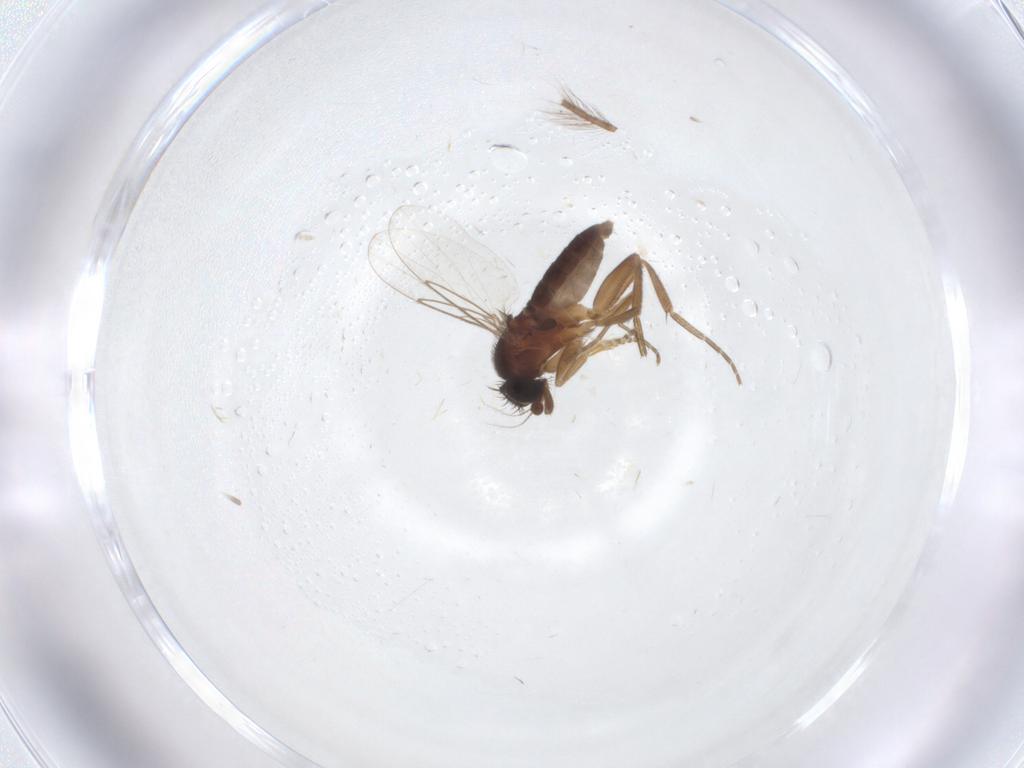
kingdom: Animalia
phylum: Arthropoda
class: Insecta
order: Diptera
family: Phoridae
